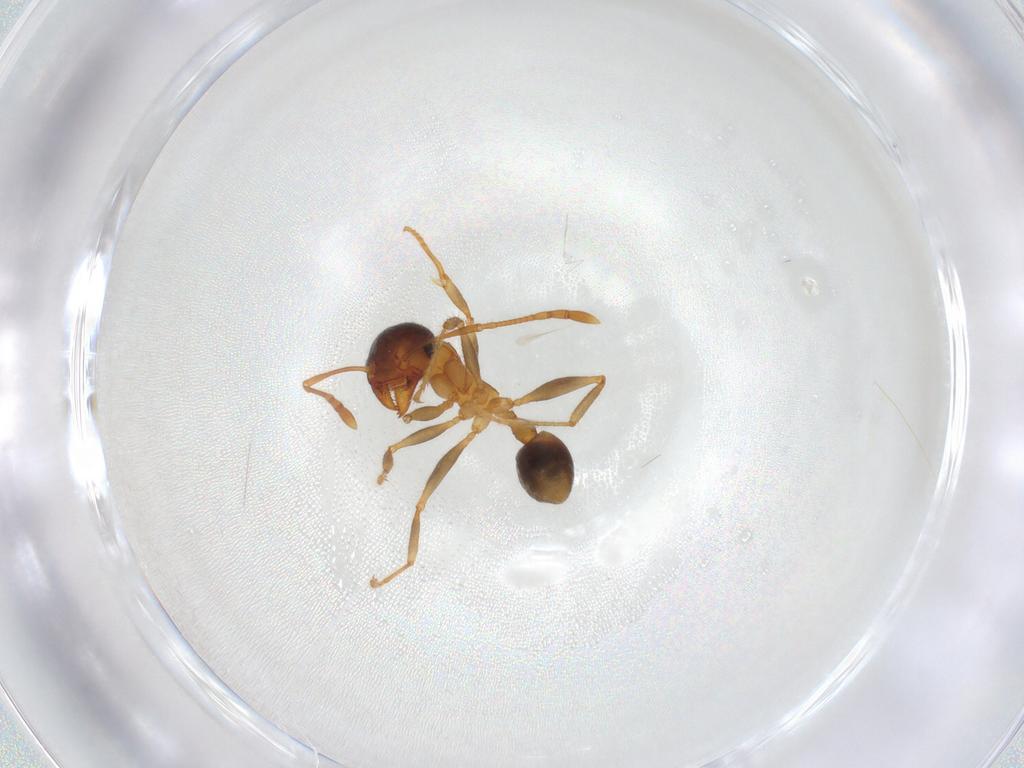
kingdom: Animalia
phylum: Arthropoda
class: Insecta
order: Hymenoptera
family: Formicidae
